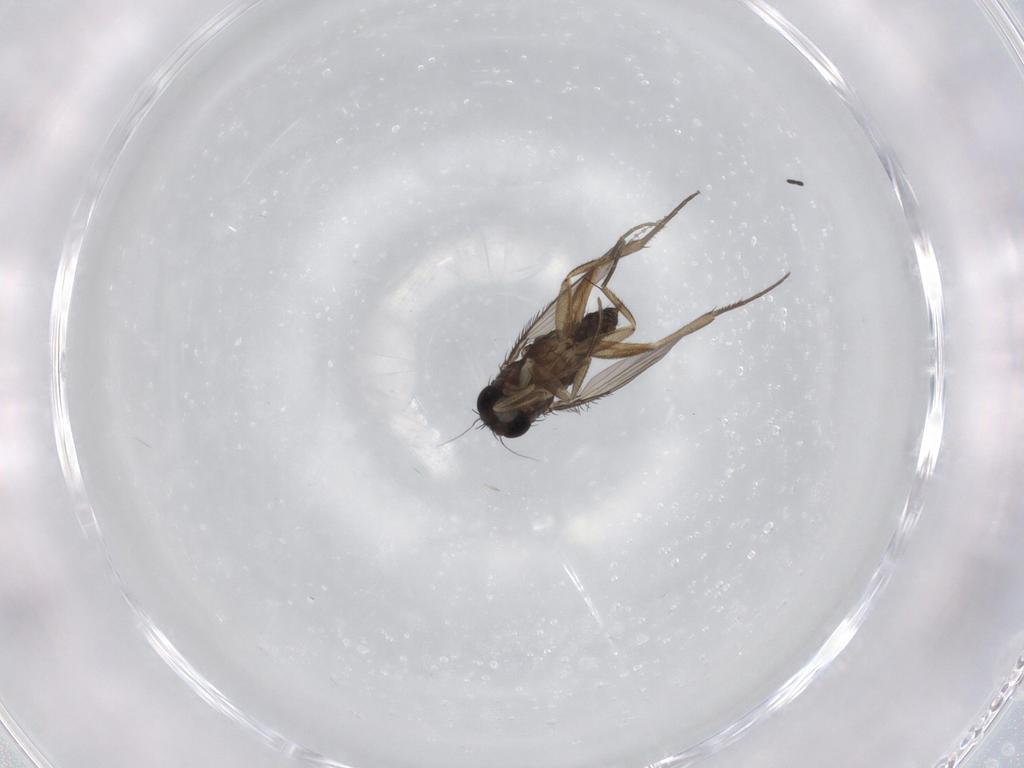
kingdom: Animalia
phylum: Arthropoda
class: Insecta
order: Diptera
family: Phoridae
